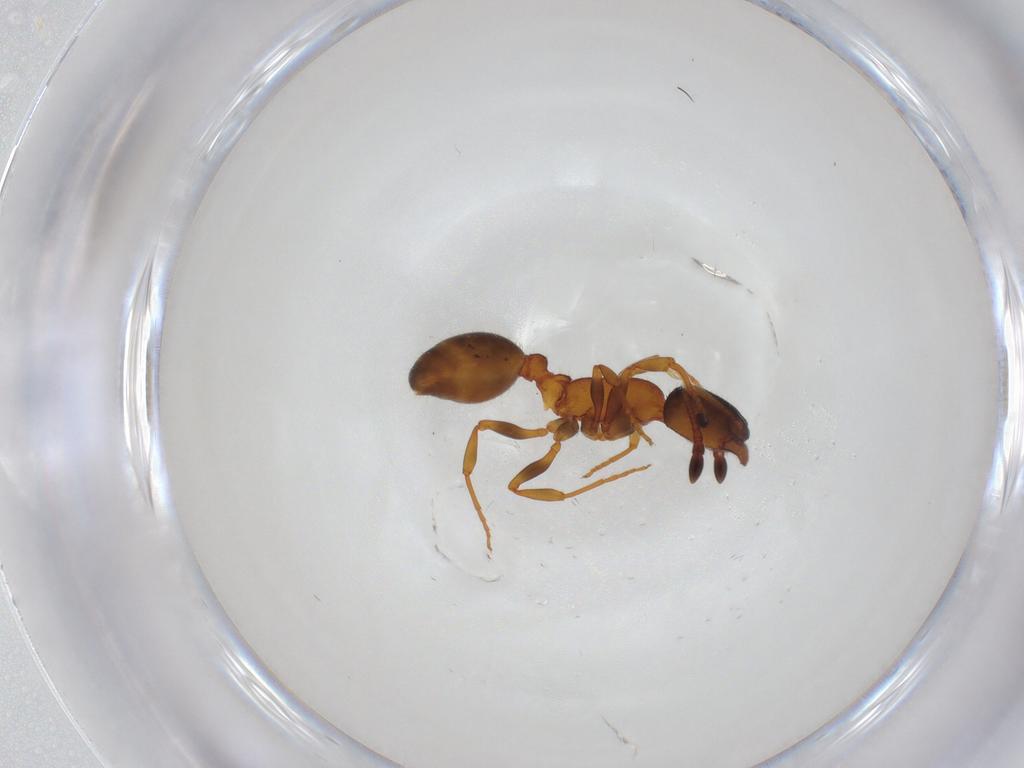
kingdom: Animalia
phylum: Arthropoda
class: Insecta
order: Hymenoptera
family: Formicidae
